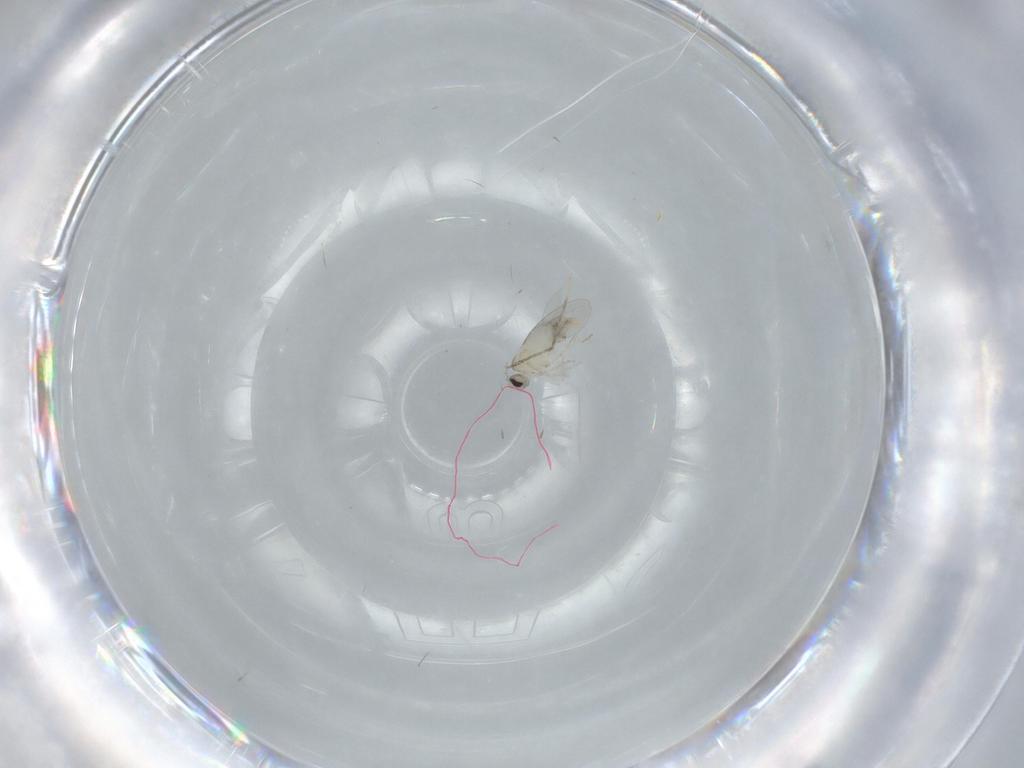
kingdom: Animalia
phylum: Arthropoda
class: Insecta
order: Diptera
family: Cecidomyiidae
